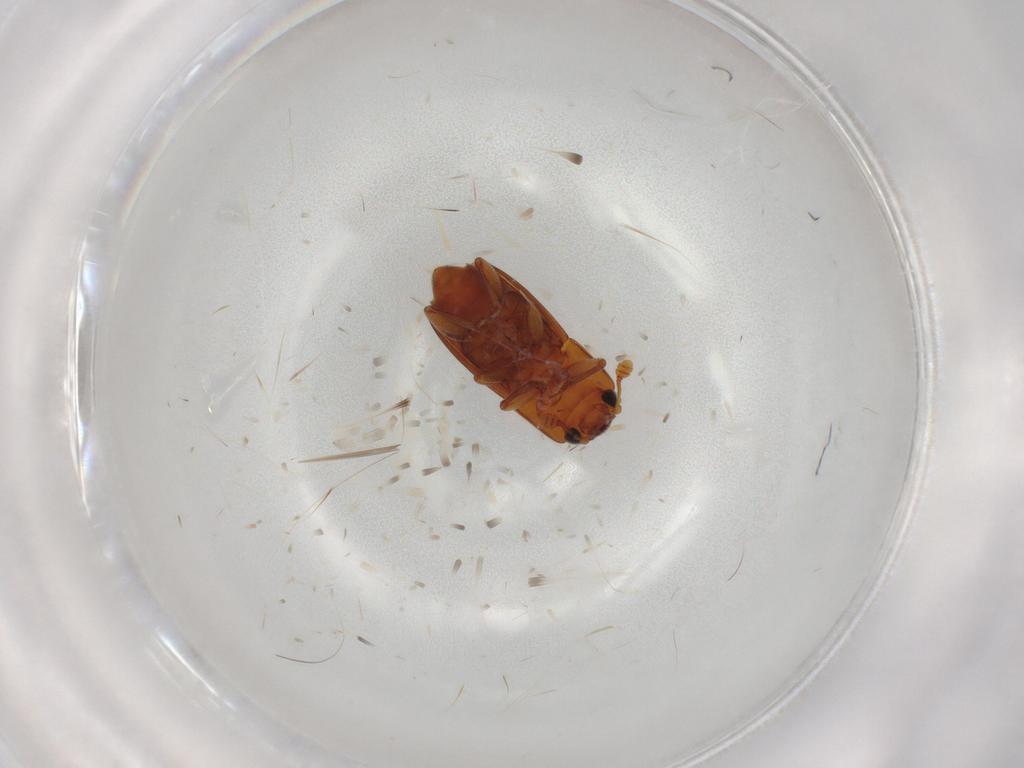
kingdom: Animalia
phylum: Arthropoda
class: Insecta
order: Coleoptera
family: Nitidulidae
